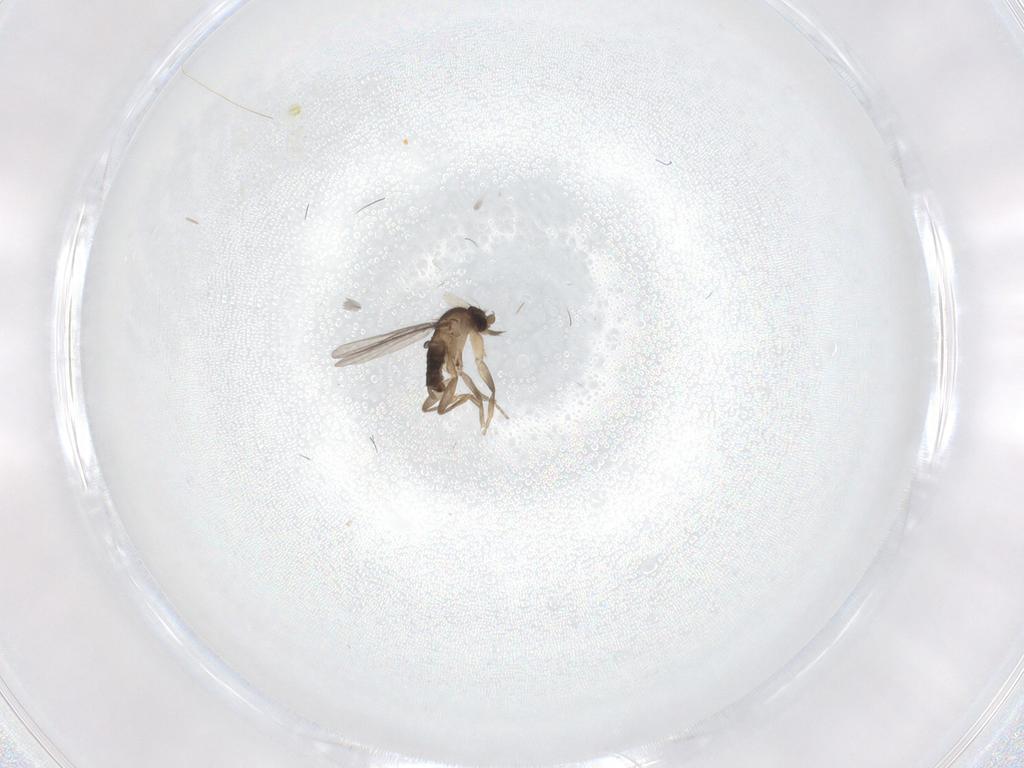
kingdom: Animalia
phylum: Arthropoda
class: Insecta
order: Diptera
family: Phoridae
